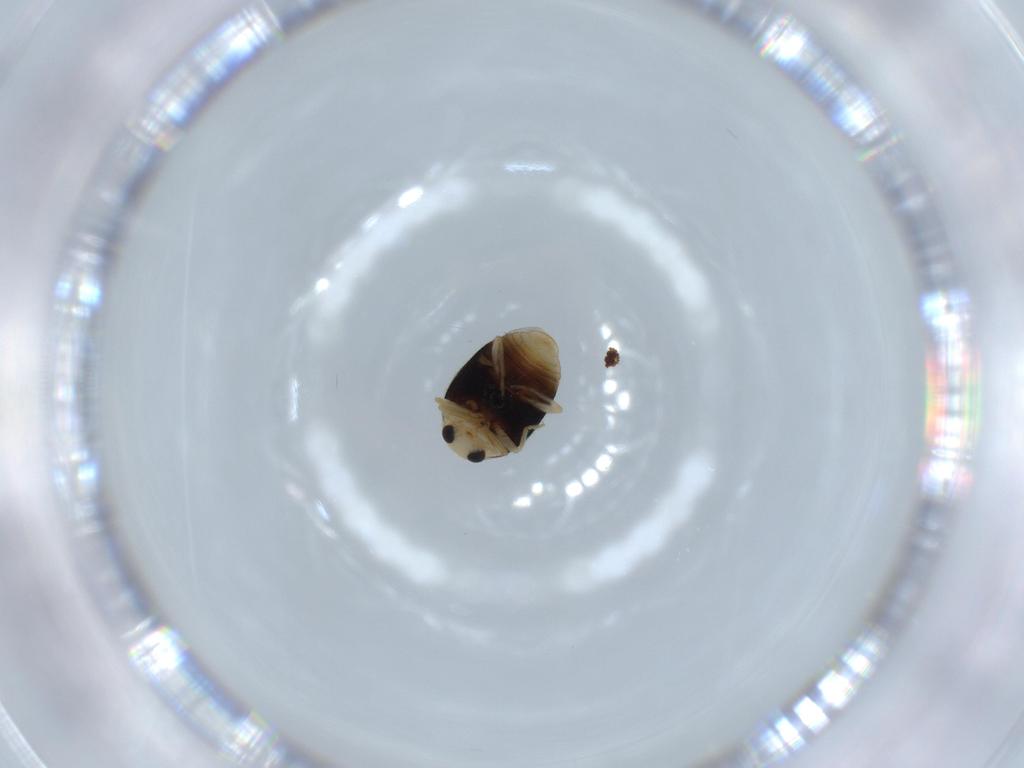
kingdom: Animalia
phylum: Arthropoda
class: Insecta
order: Coleoptera
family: Coccinellidae
